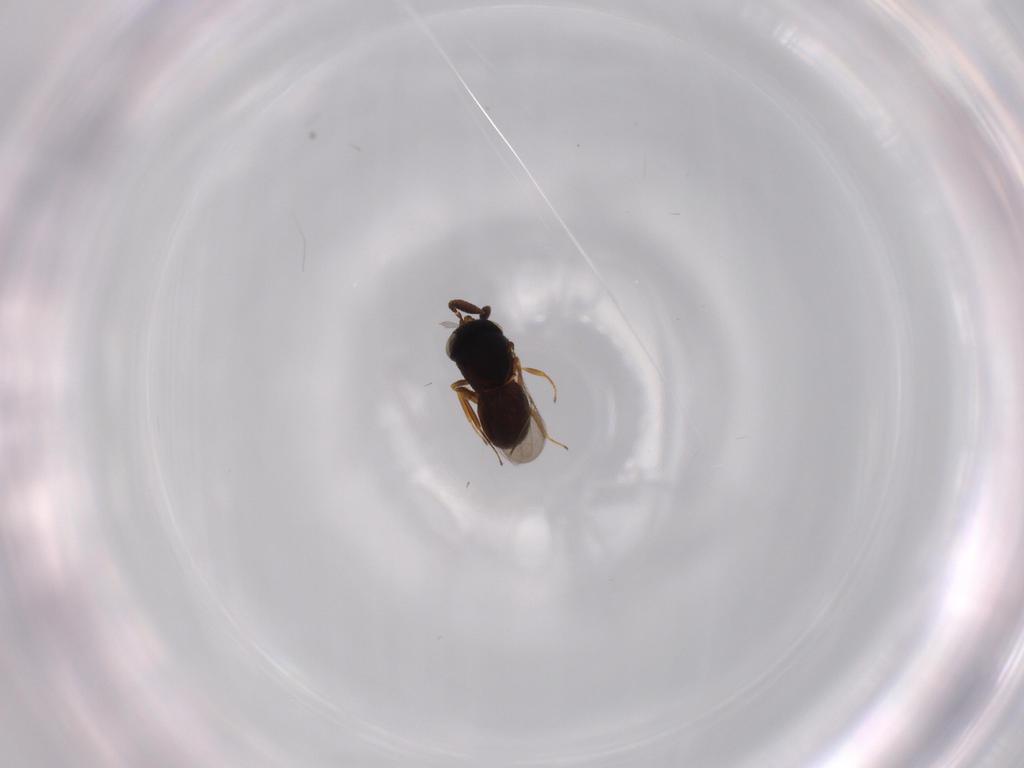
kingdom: Animalia
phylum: Arthropoda
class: Insecta
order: Hymenoptera
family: Scelionidae
